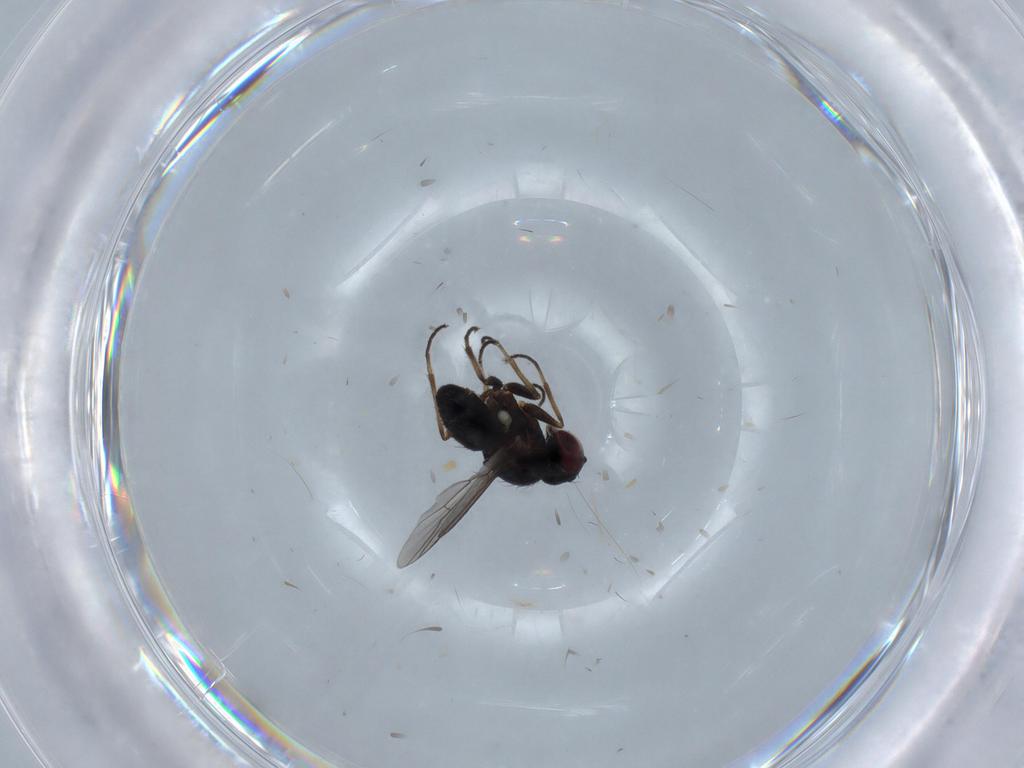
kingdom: Animalia
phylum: Arthropoda
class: Insecta
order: Diptera
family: Dolichopodidae
